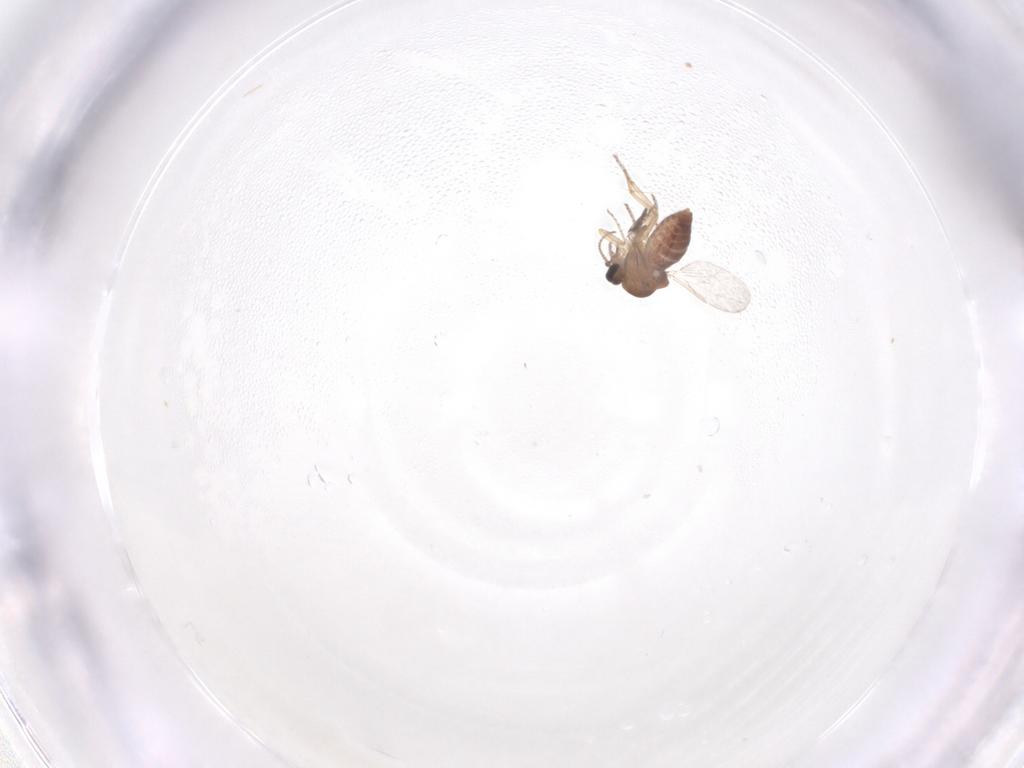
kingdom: Animalia
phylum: Arthropoda
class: Insecta
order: Diptera
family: Ceratopogonidae
